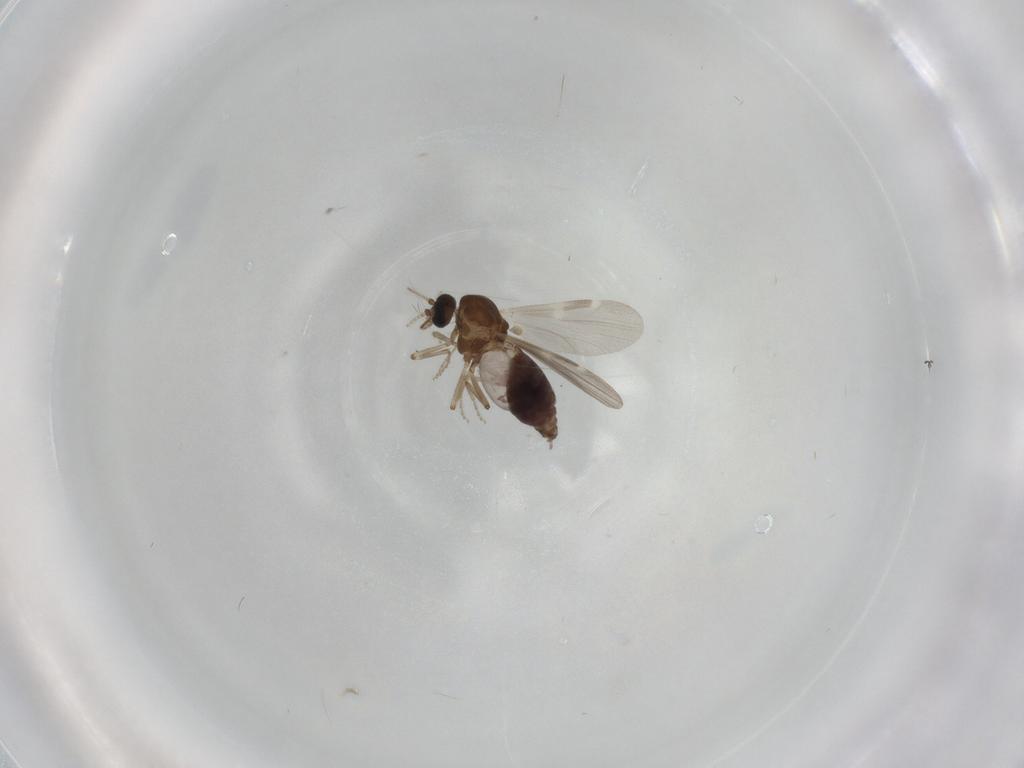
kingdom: Animalia
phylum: Arthropoda
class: Insecta
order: Diptera
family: Ceratopogonidae
